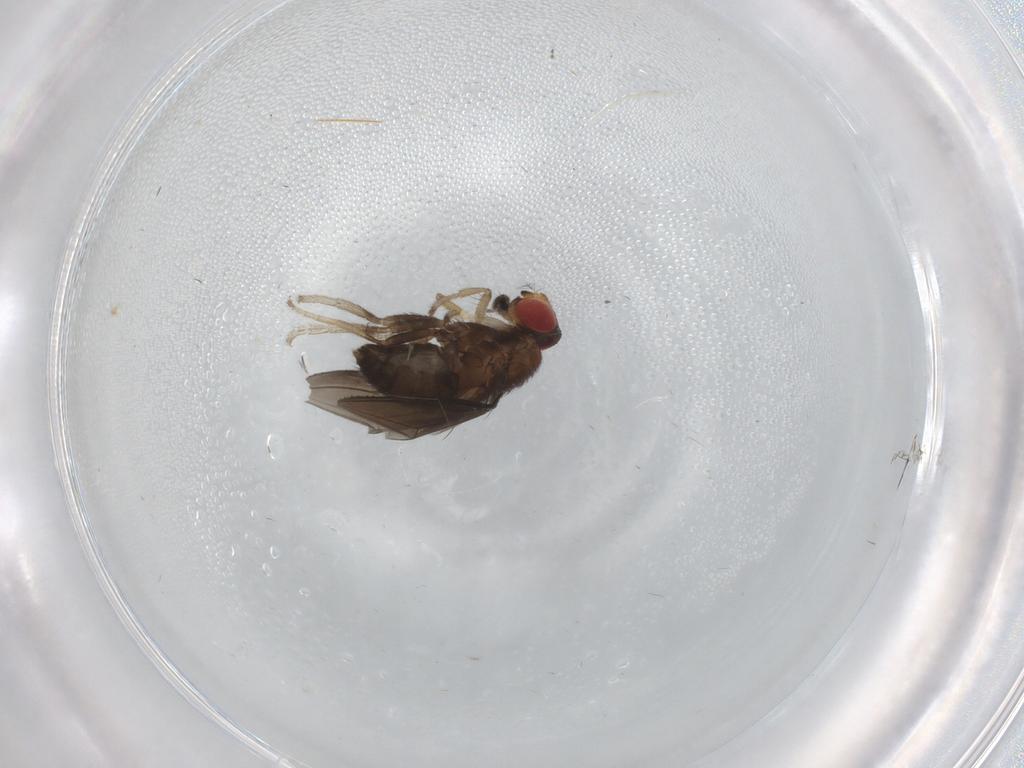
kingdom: Animalia
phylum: Arthropoda
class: Insecta
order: Diptera
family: Drosophilidae
